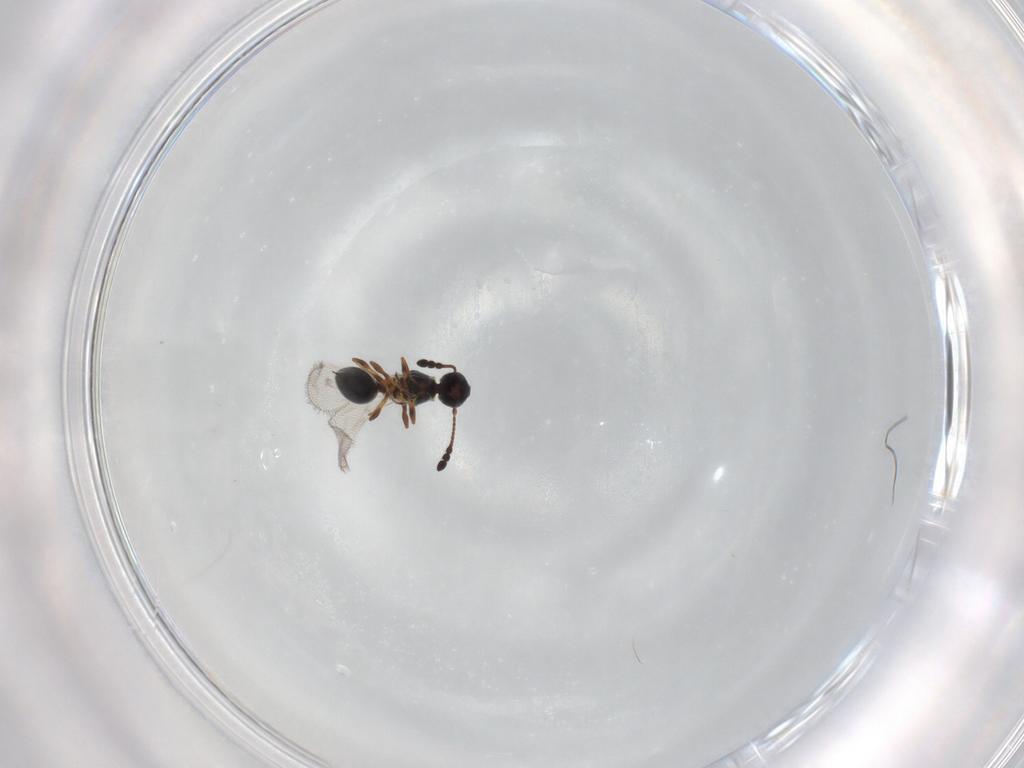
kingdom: Animalia
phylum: Arthropoda
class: Insecta
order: Hymenoptera
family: Diapriidae
